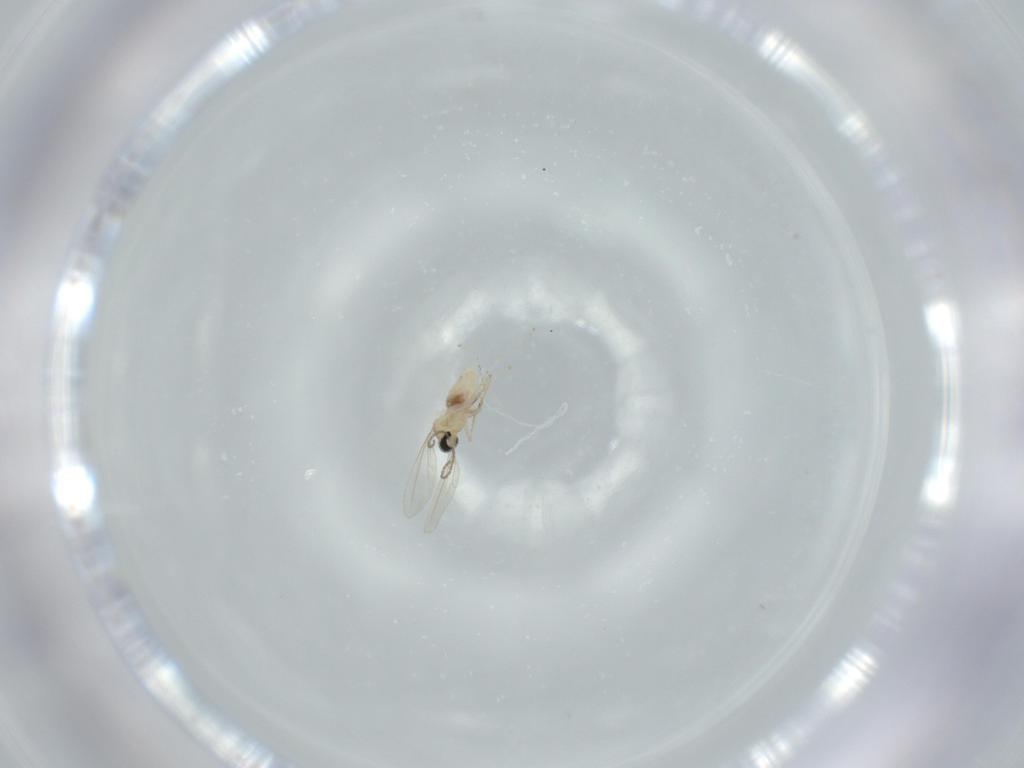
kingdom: Animalia
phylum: Arthropoda
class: Insecta
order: Diptera
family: Cecidomyiidae
